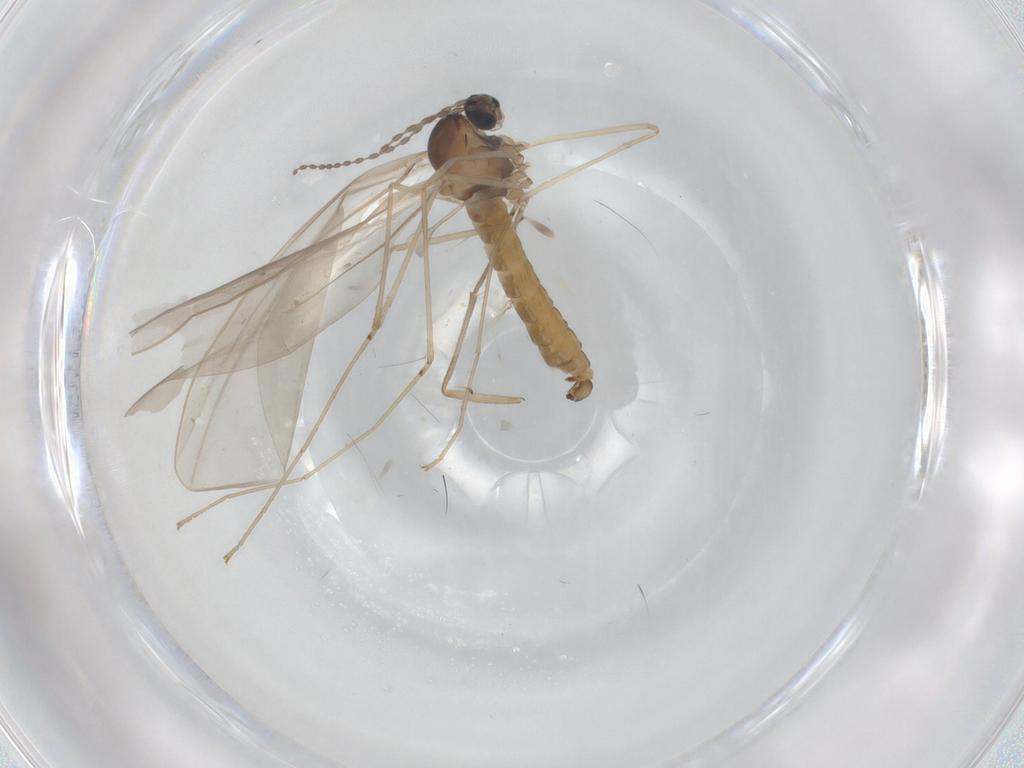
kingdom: Animalia
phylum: Arthropoda
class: Insecta
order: Diptera
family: Cecidomyiidae
